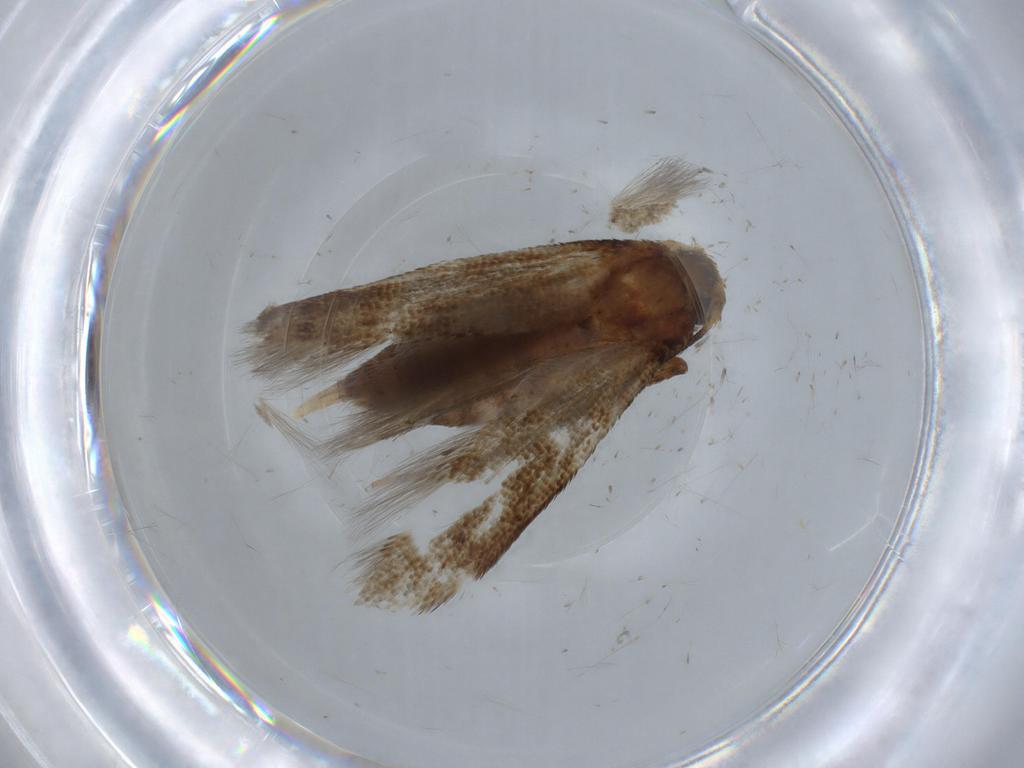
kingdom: Animalia
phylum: Arthropoda
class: Insecta
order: Lepidoptera
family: Blastobasidae
